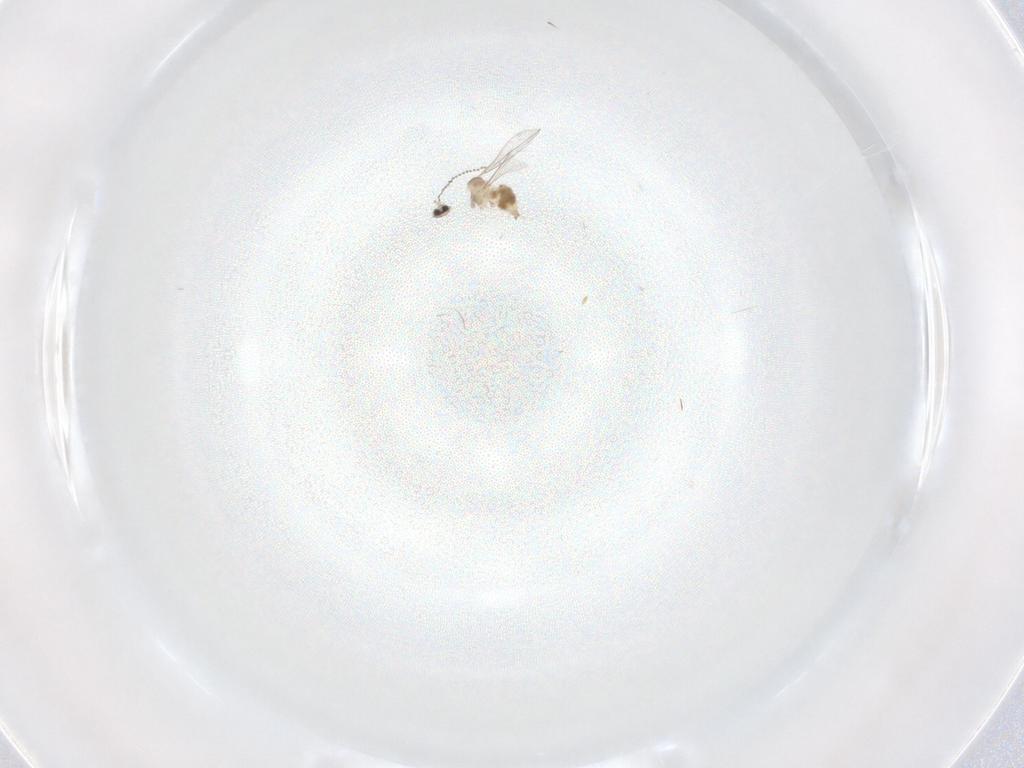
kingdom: Animalia
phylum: Arthropoda
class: Insecta
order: Diptera
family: Cecidomyiidae
